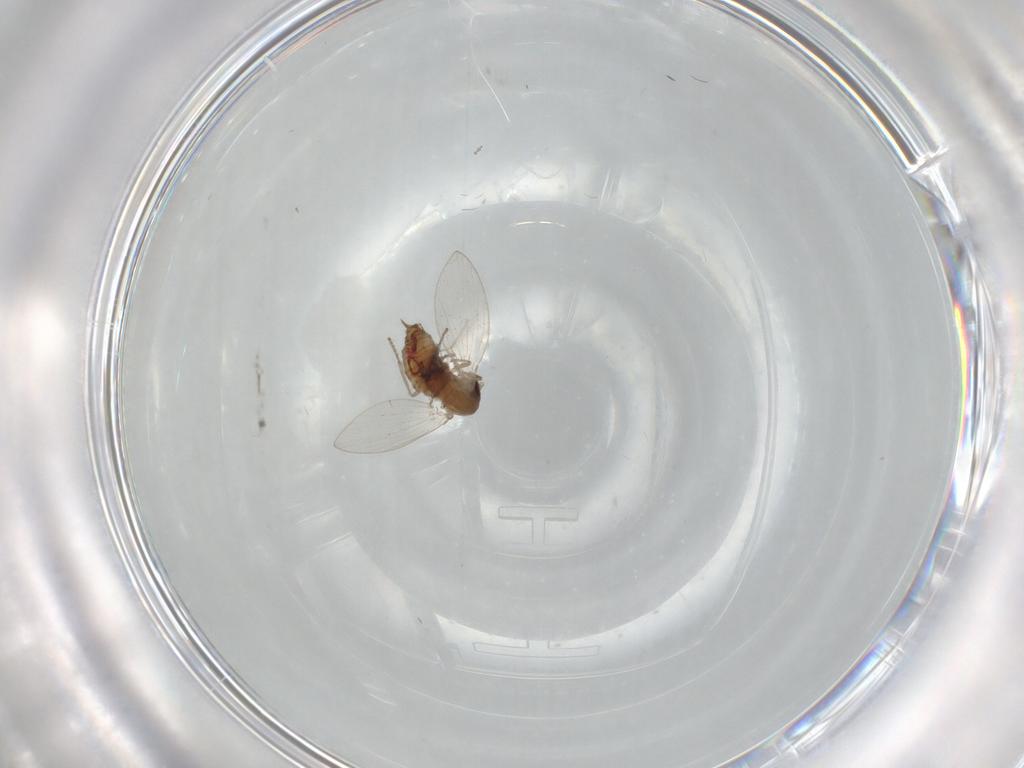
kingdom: Animalia
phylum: Arthropoda
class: Insecta
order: Diptera
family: Psychodidae
